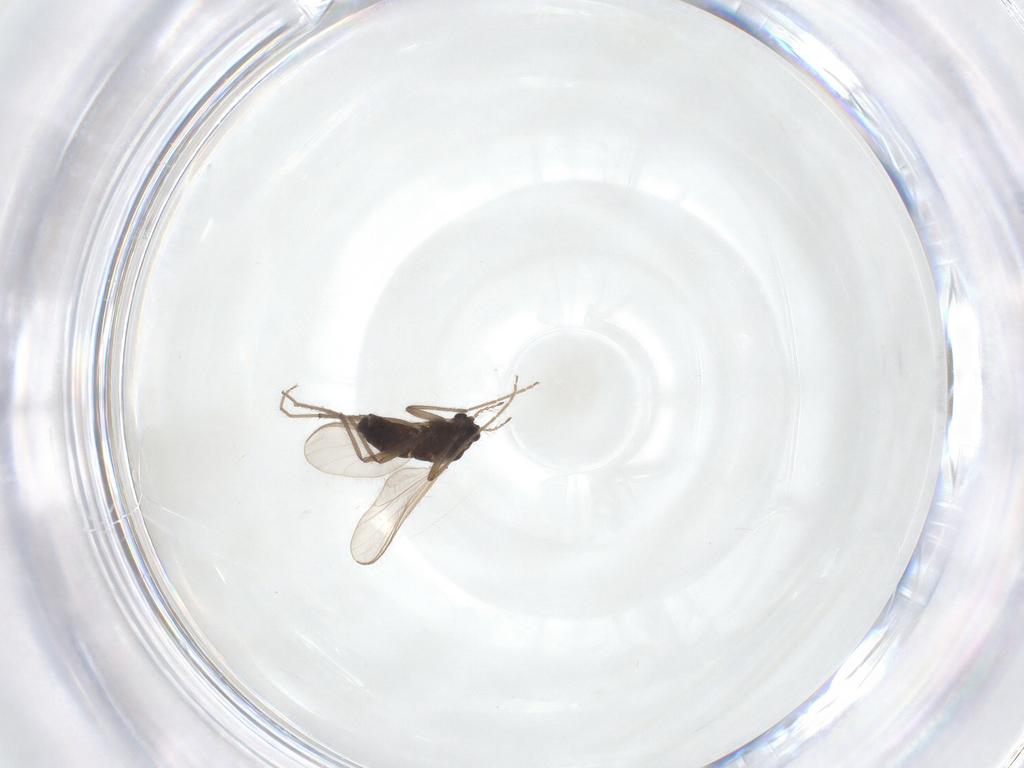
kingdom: Animalia
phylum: Arthropoda
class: Insecta
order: Diptera
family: Chironomidae
